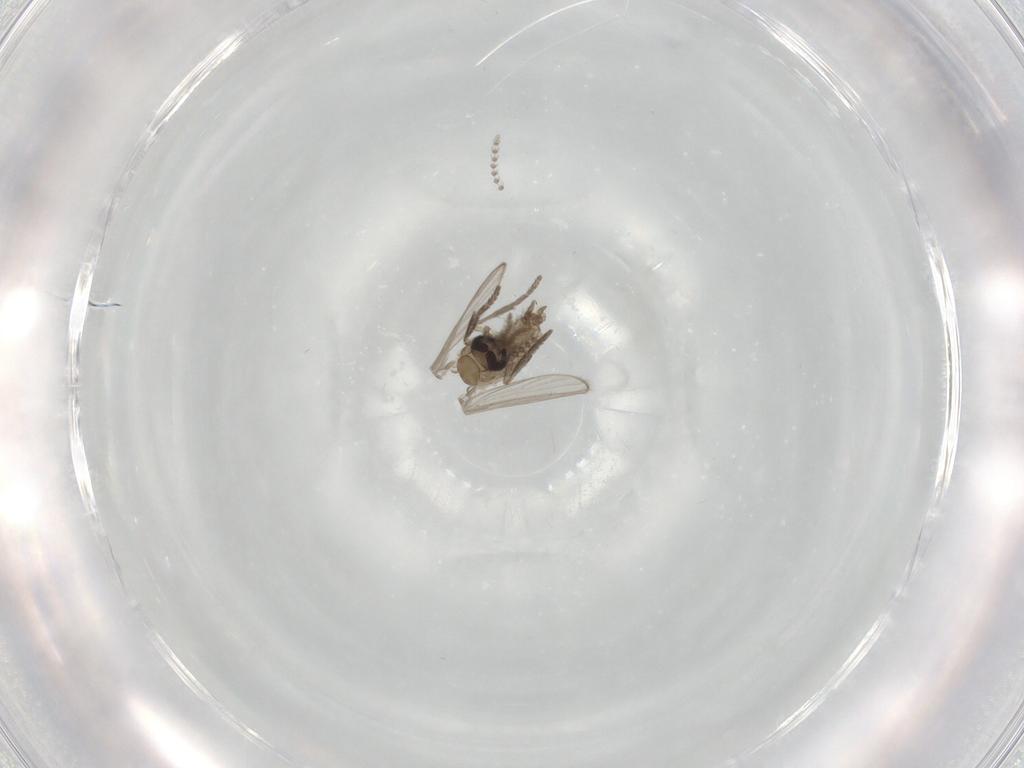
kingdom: Animalia
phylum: Arthropoda
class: Insecta
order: Diptera
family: Psychodidae
